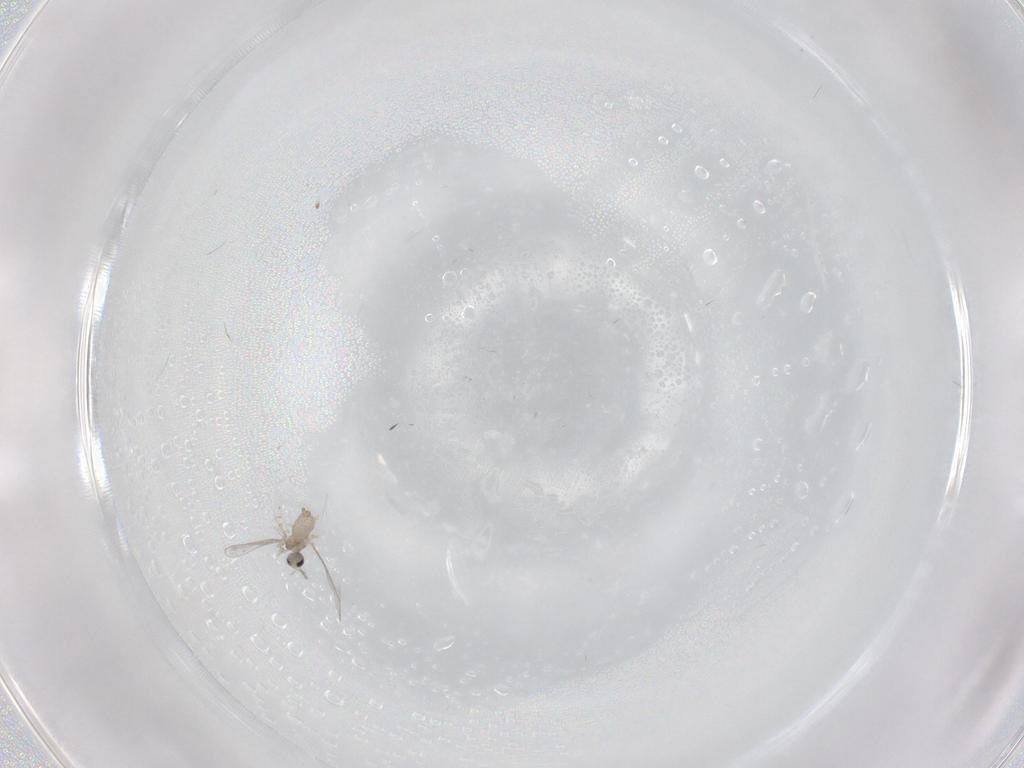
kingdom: Animalia
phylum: Arthropoda
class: Insecta
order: Diptera
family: Cecidomyiidae
